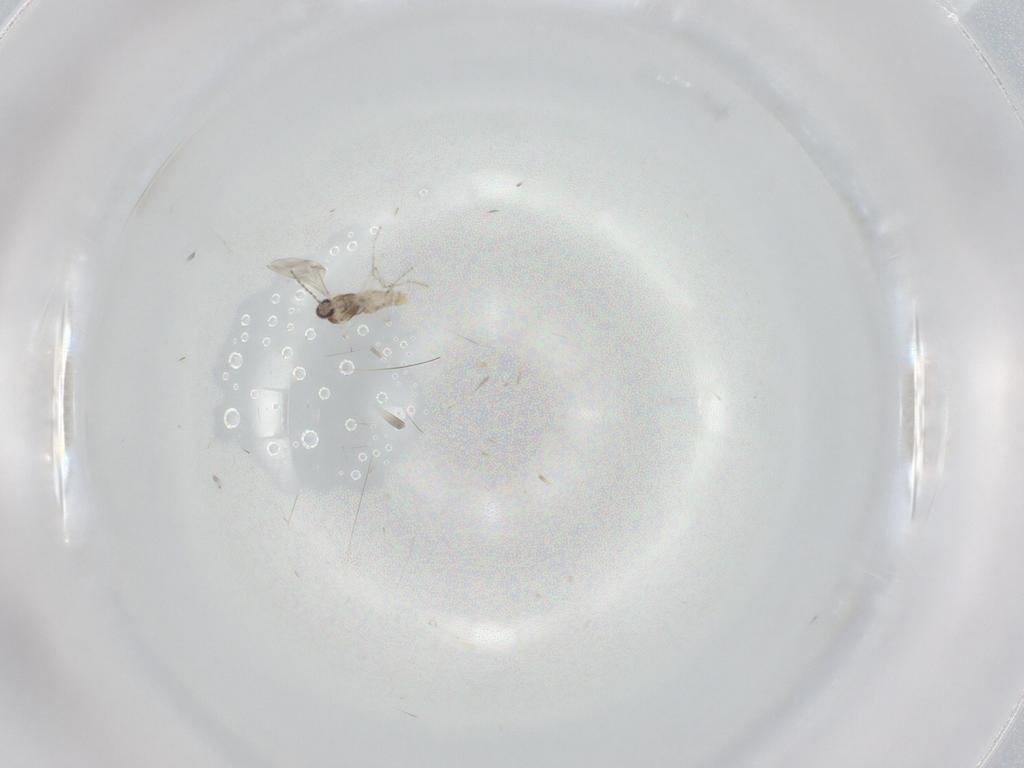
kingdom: Animalia
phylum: Arthropoda
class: Insecta
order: Diptera
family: Cecidomyiidae
